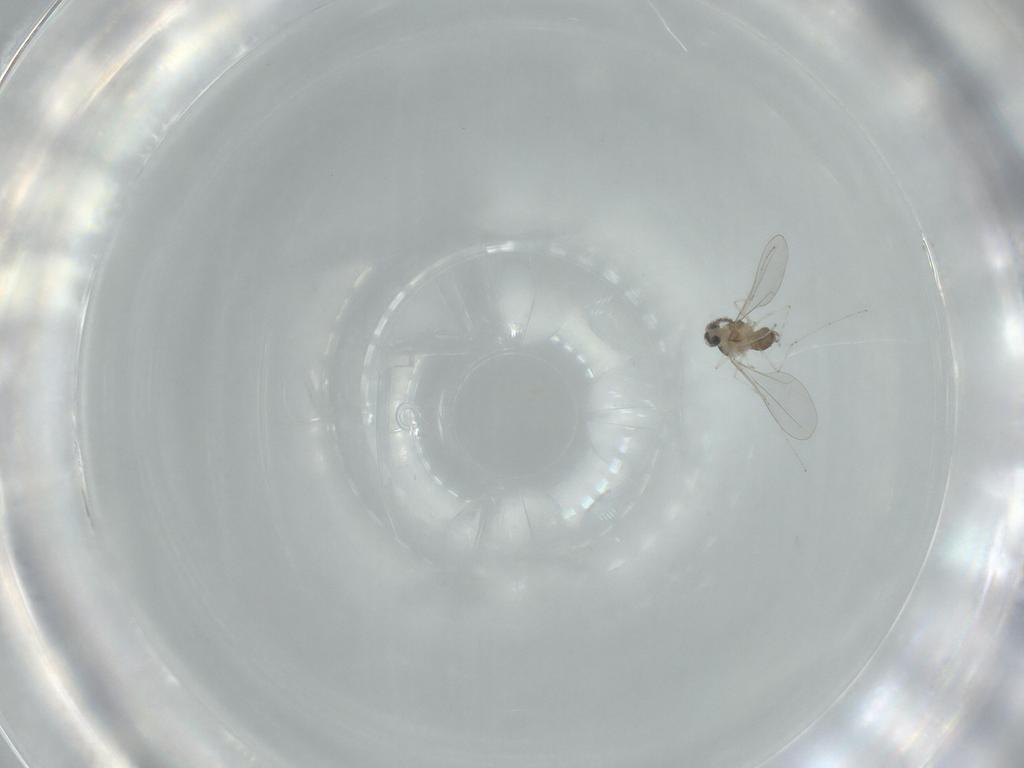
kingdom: Animalia
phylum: Arthropoda
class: Insecta
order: Diptera
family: Cecidomyiidae
